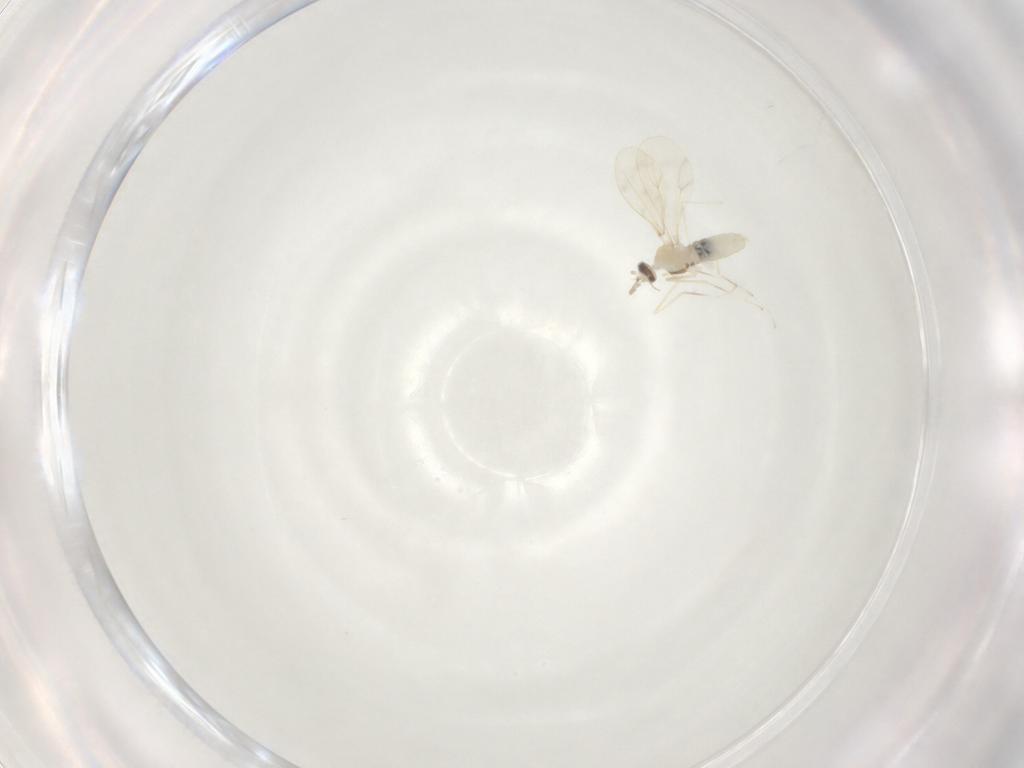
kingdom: Animalia
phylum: Arthropoda
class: Insecta
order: Diptera
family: Cecidomyiidae
